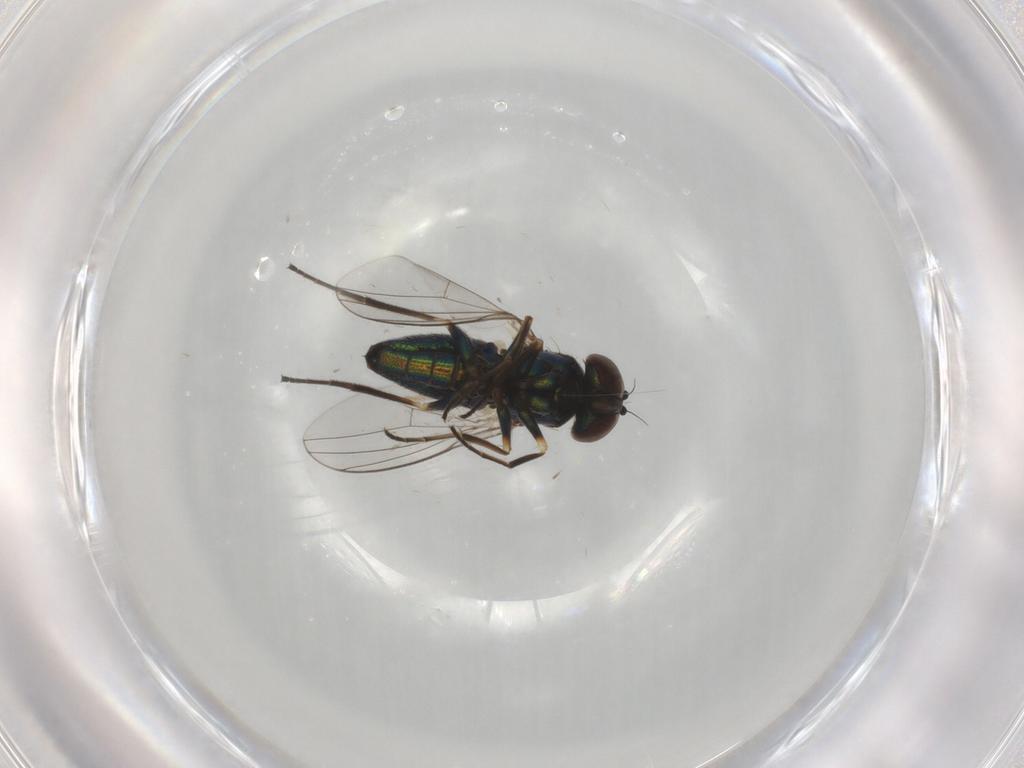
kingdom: Animalia
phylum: Arthropoda
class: Insecta
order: Diptera
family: Dolichopodidae
